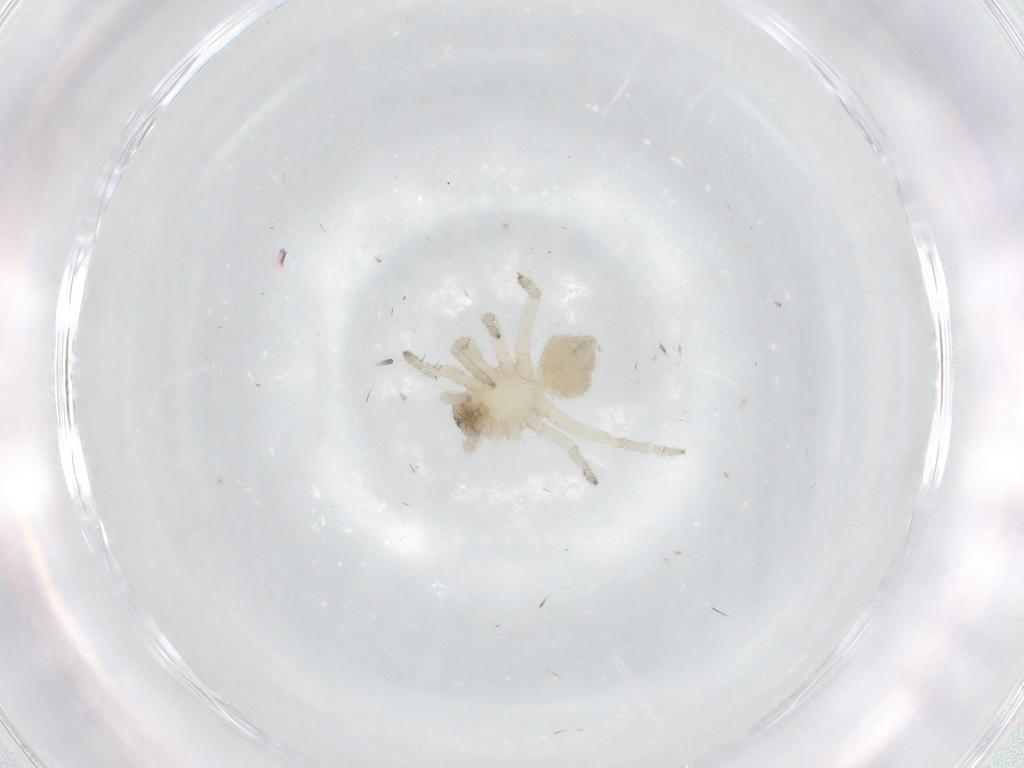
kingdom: Animalia
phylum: Arthropoda
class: Arachnida
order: Araneae
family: Clubionidae
